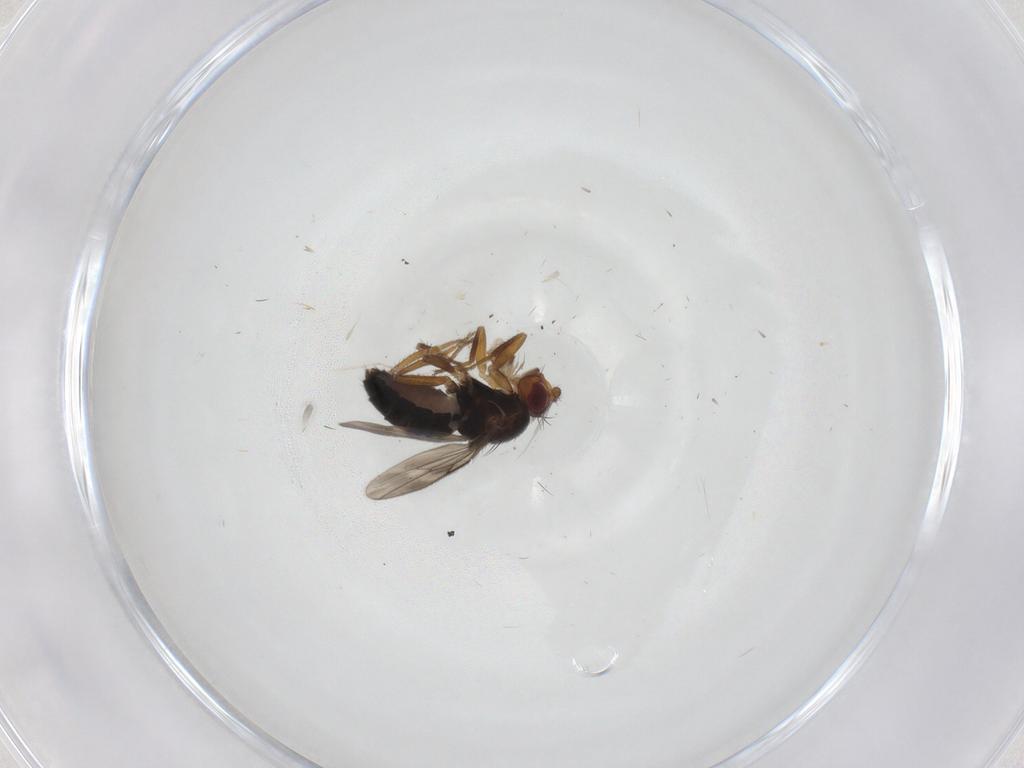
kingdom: Animalia
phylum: Arthropoda
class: Insecta
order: Diptera
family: Sphaeroceridae
